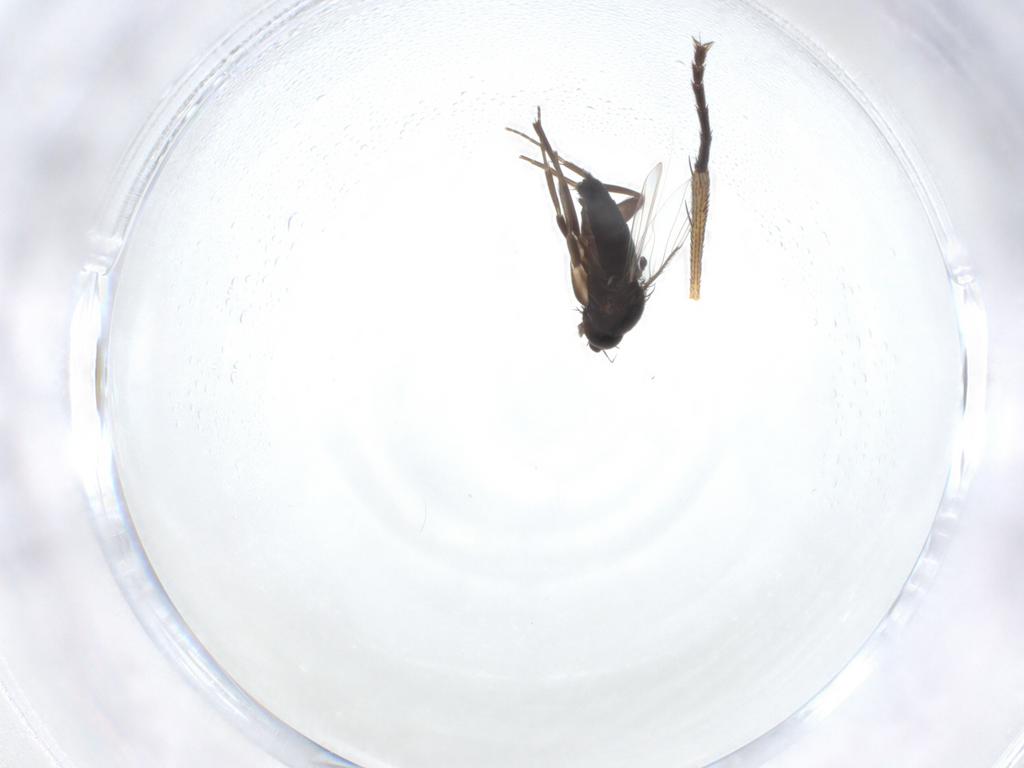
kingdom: Animalia
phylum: Arthropoda
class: Insecta
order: Diptera
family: Anthomyiidae
